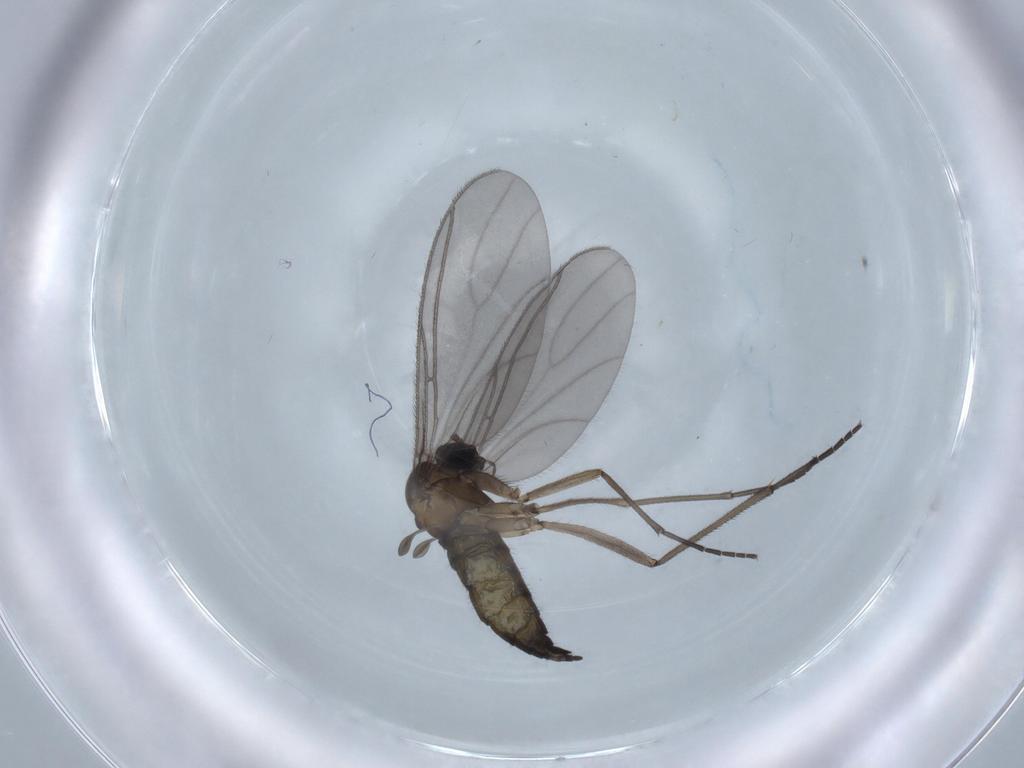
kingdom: Animalia
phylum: Arthropoda
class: Insecta
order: Diptera
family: Sciaridae
